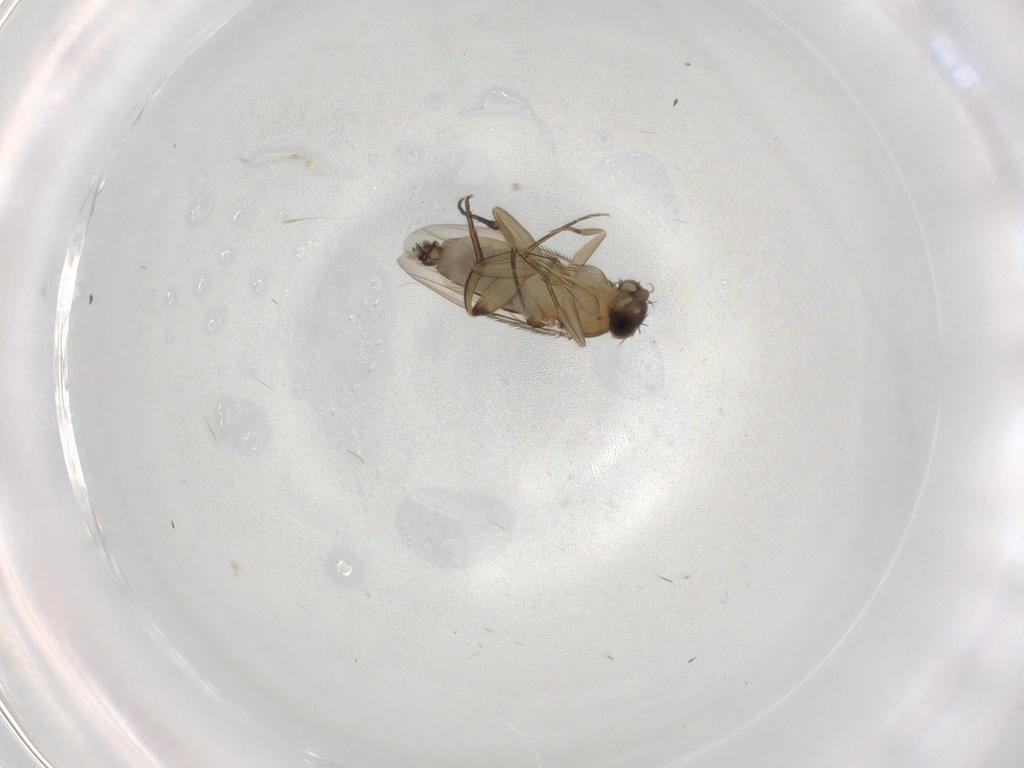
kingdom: Animalia
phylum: Arthropoda
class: Insecta
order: Diptera
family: Phoridae
